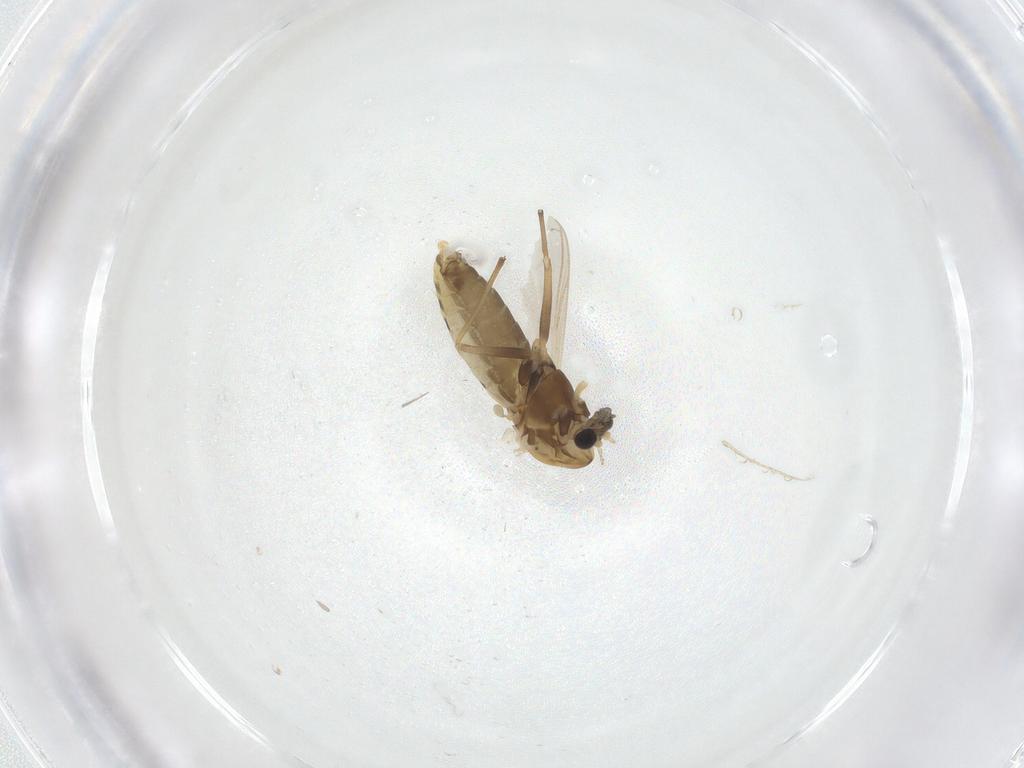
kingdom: Animalia
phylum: Arthropoda
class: Insecta
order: Diptera
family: Chironomidae
